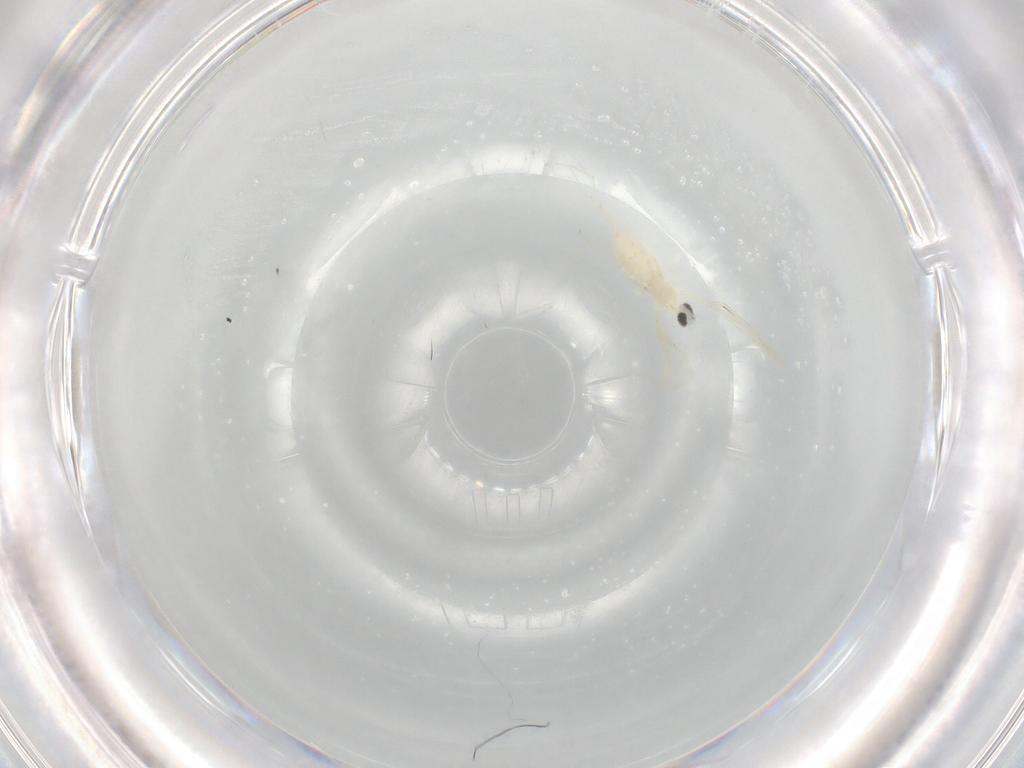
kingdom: Animalia
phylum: Arthropoda
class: Insecta
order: Diptera
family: Cecidomyiidae
